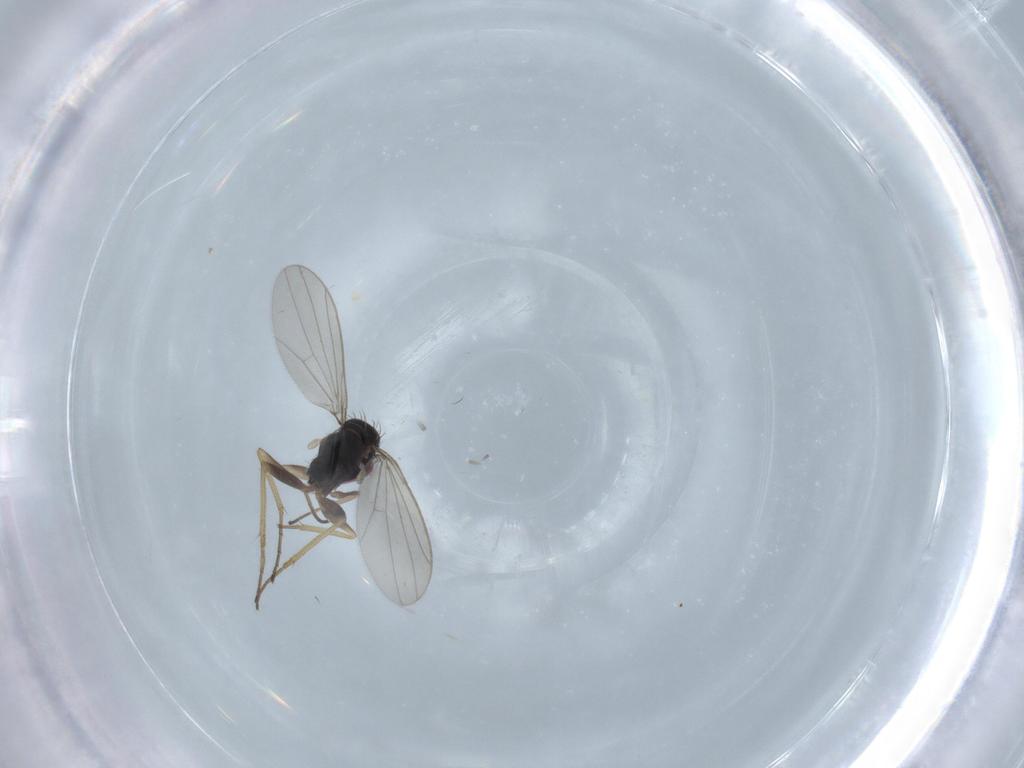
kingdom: Animalia
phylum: Arthropoda
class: Insecta
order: Diptera
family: Dolichopodidae
